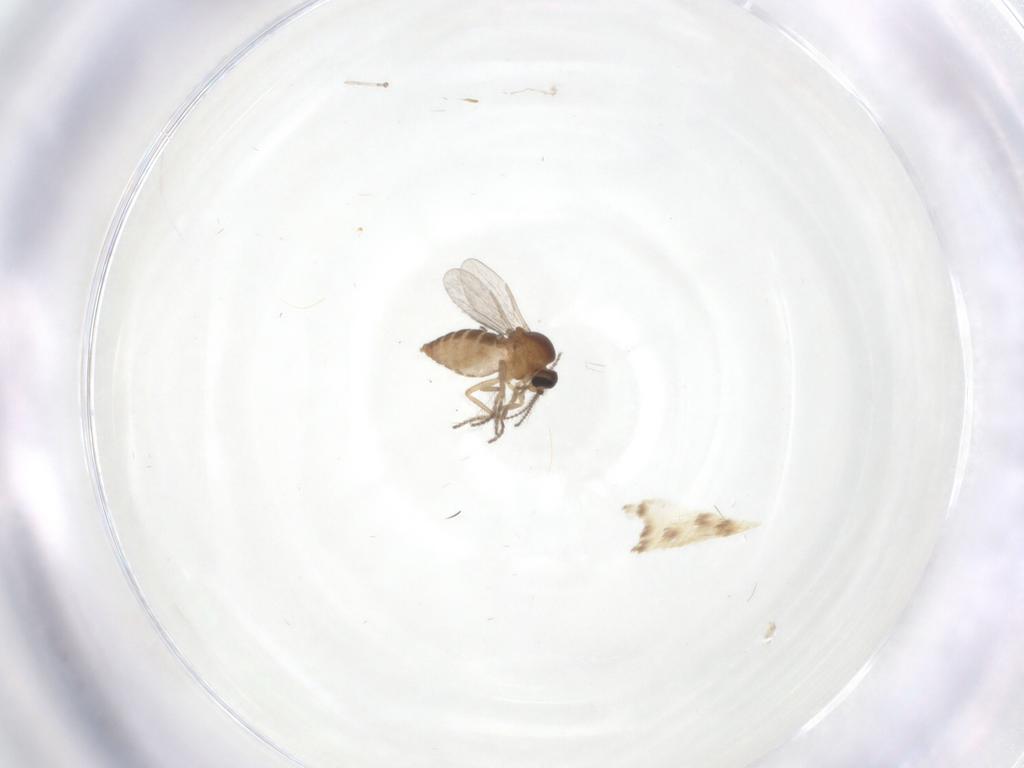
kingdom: Animalia
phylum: Arthropoda
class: Insecta
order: Diptera
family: Ceratopogonidae
